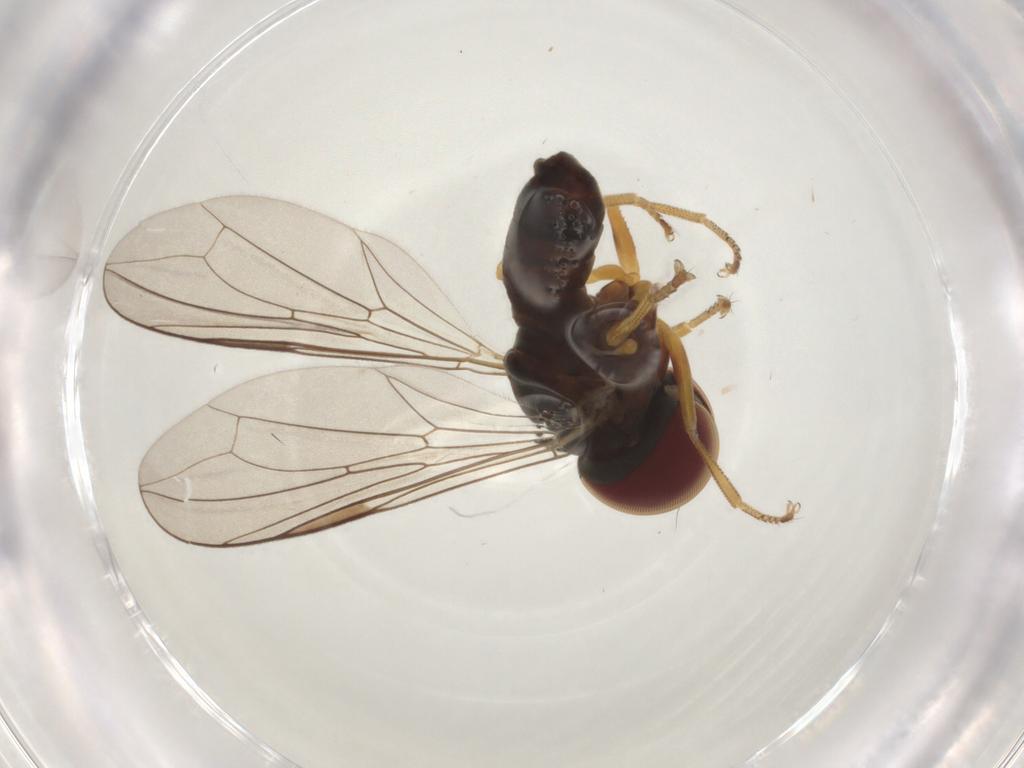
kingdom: Animalia
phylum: Arthropoda
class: Insecta
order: Diptera
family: Pipunculidae
